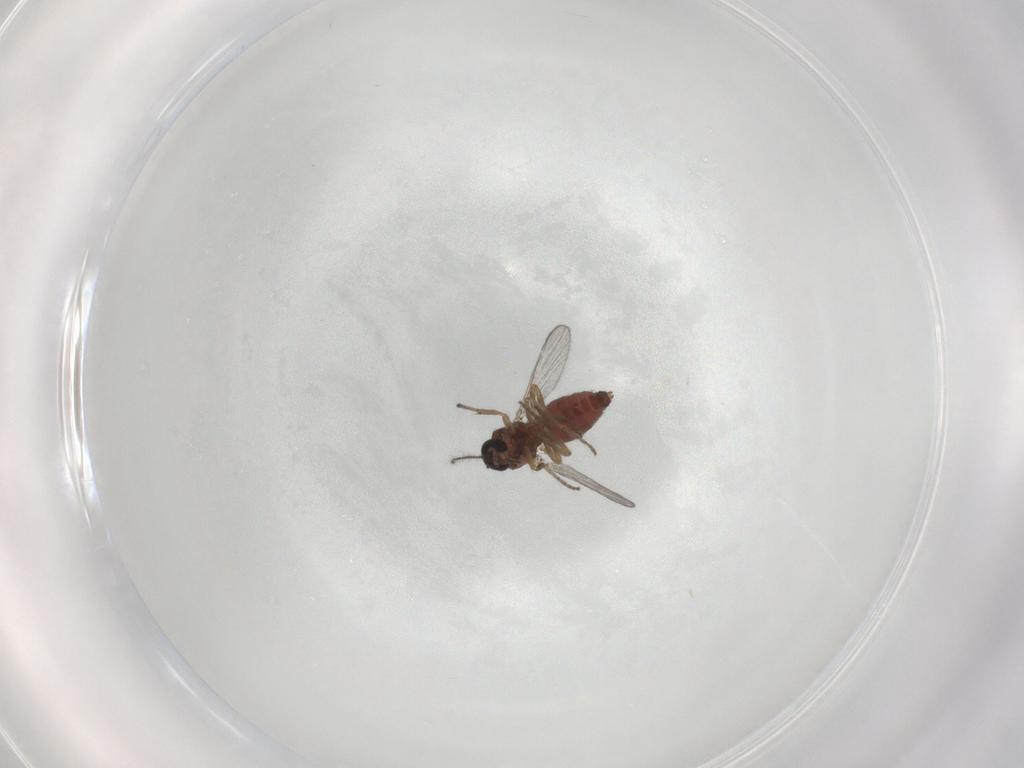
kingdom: Animalia
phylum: Arthropoda
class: Insecta
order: Diptera
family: Chironomidae
